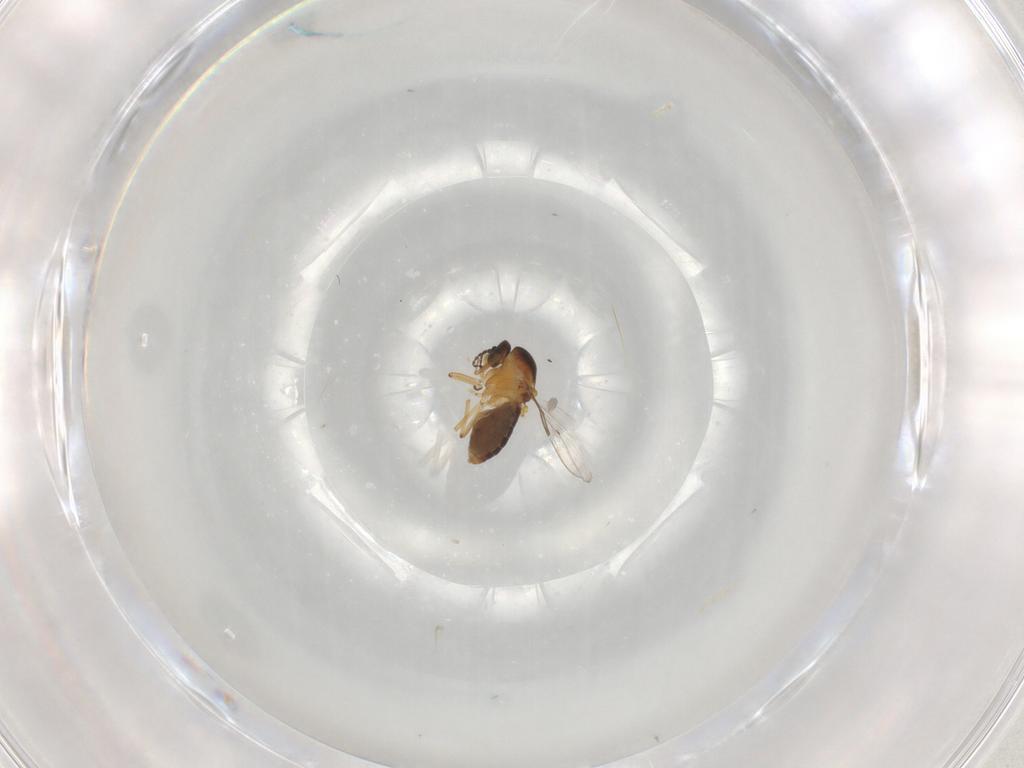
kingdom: Animalia
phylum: Arthropoda
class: Insecta
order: Diptera
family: Ceratopogonidae
